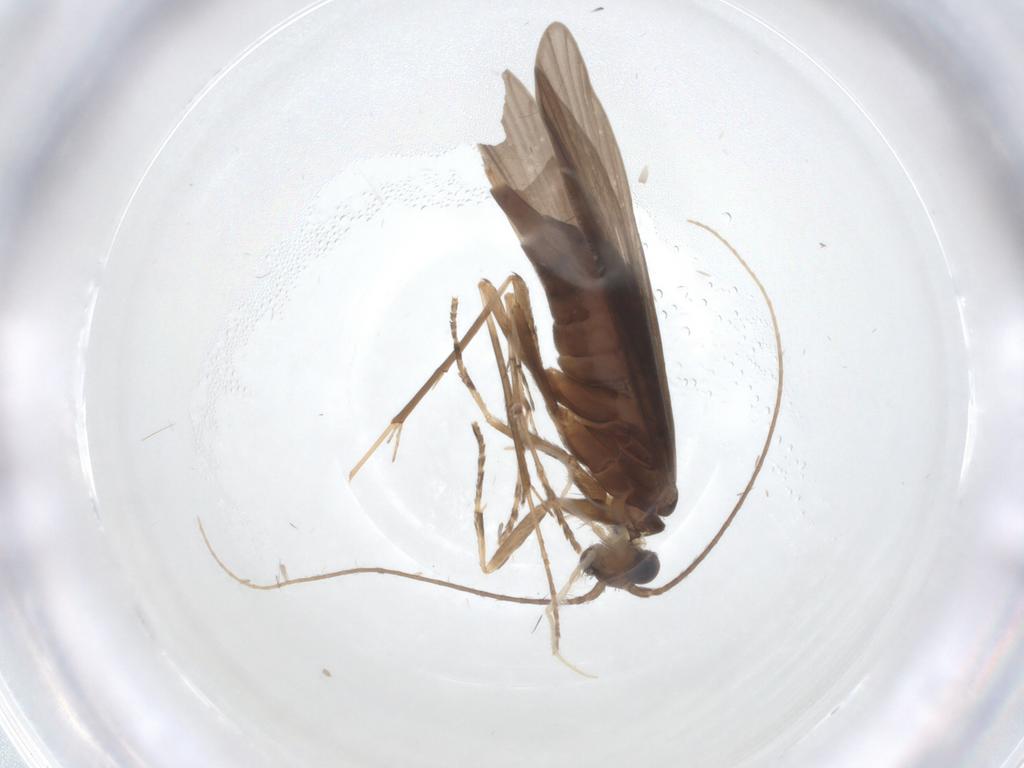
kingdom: Animalia
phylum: Arthropoda
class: Insecta
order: Trichoptera
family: Xiphocentronidae
